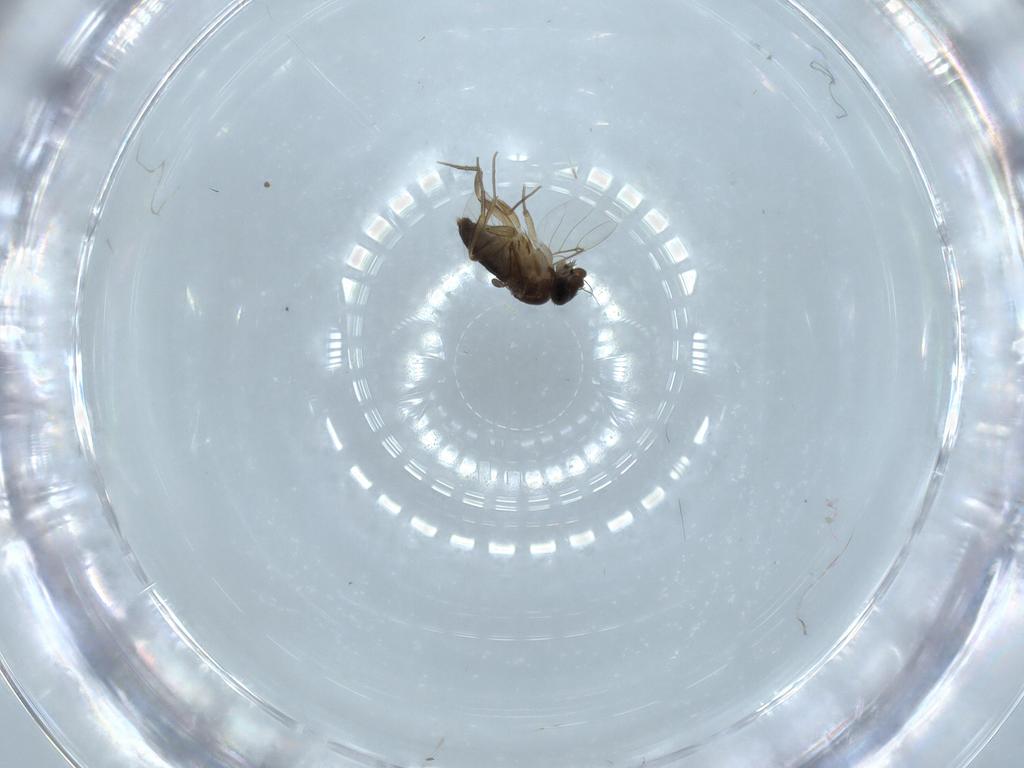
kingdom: Animalia
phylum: Arthropoda
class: Insecta
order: Diptera
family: Phoridae
